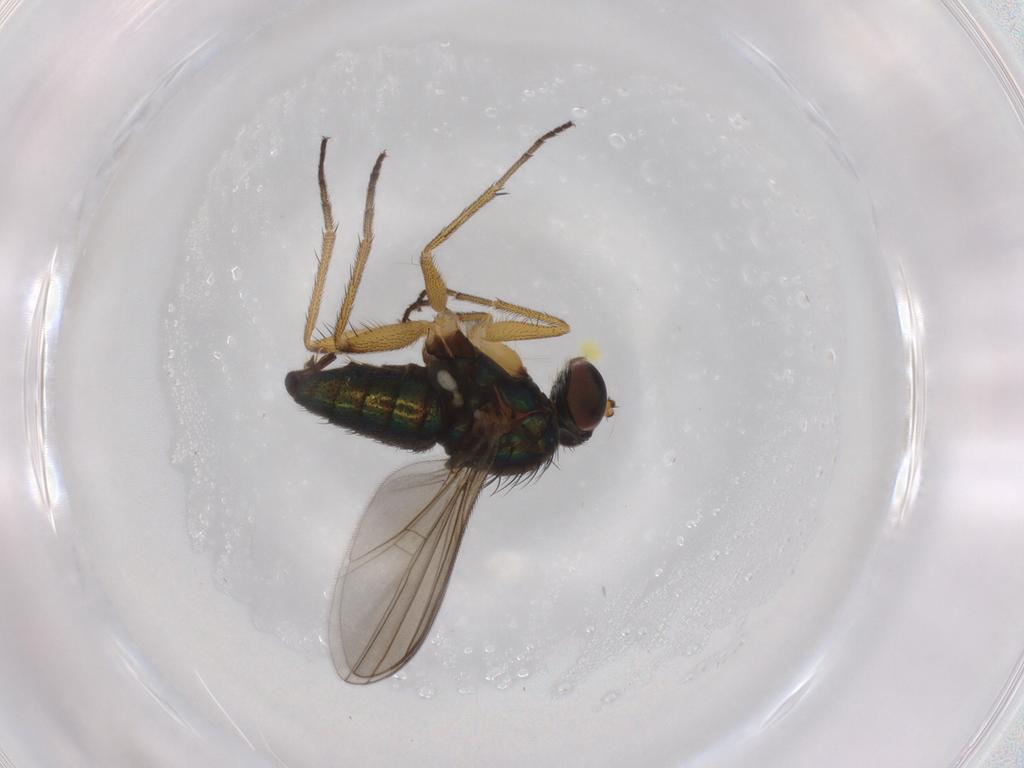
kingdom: Animalia
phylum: Arthropoda
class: Insecta
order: Diptera
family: Dolichopodidae
